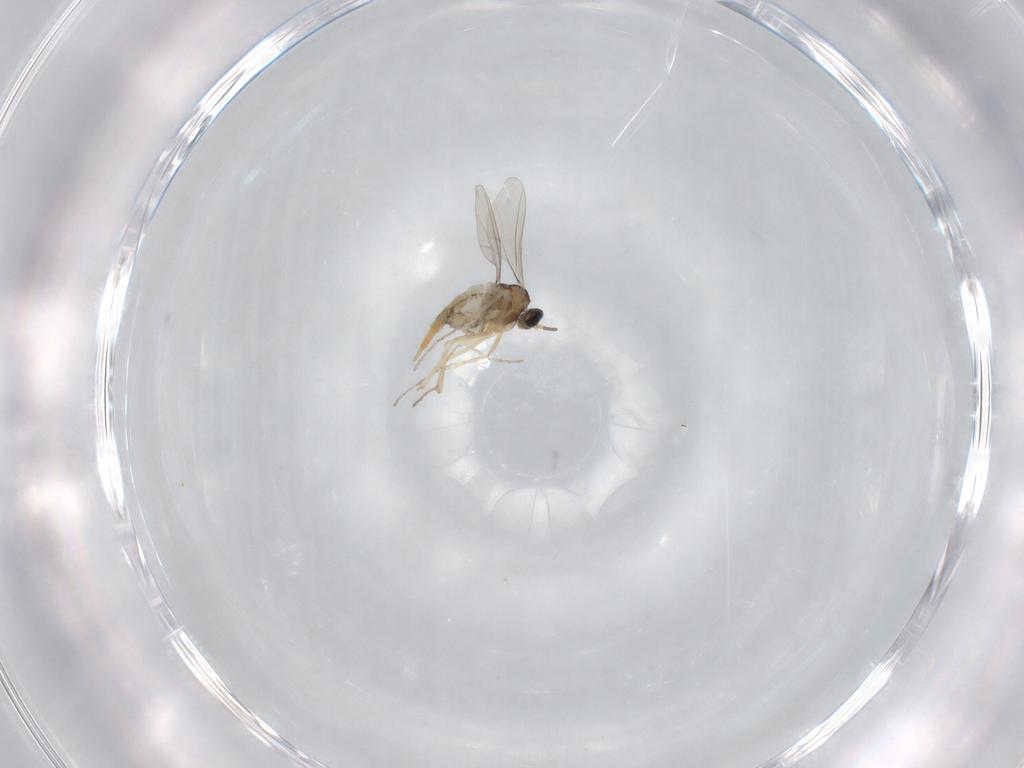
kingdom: Animalia
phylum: Arthropoda
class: Insecta
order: Diptera
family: Cecidomyiidae
